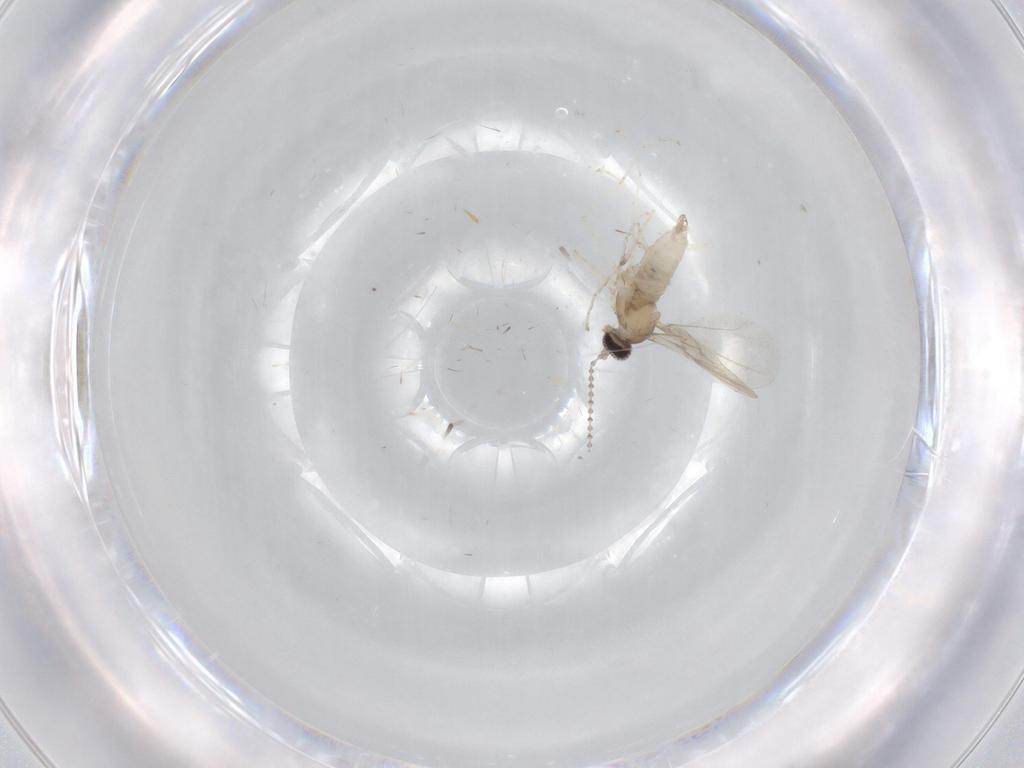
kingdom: Animalia
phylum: Arthropoda
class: Insecta
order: Diptera
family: Cecidomyiidae
